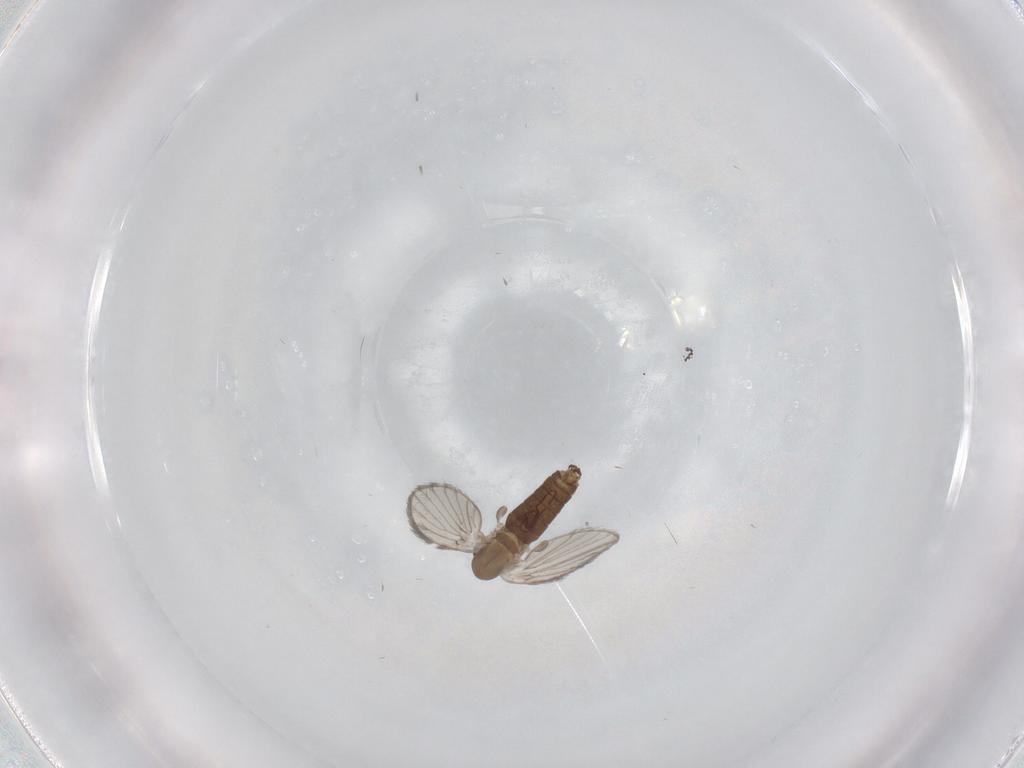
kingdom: Animalia
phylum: Arthropoda
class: Insecta
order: Diptera
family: Cecidomyiidae
